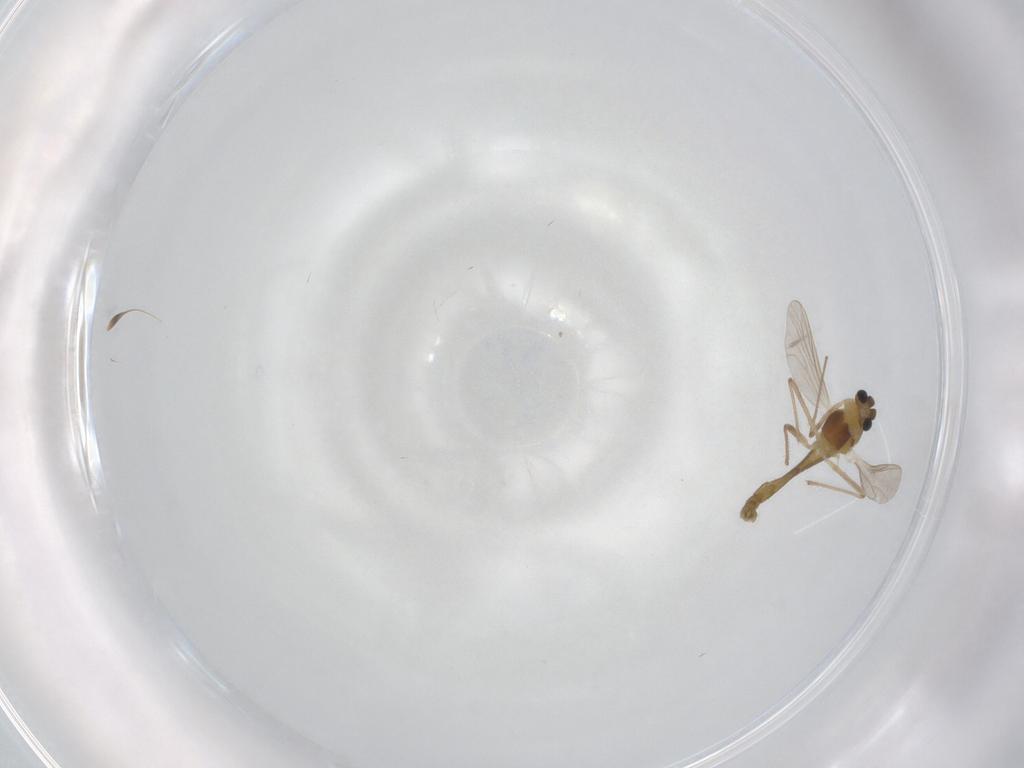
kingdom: Animalia
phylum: Arthropoda
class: Insecta
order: Diptera
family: Chironomidae
